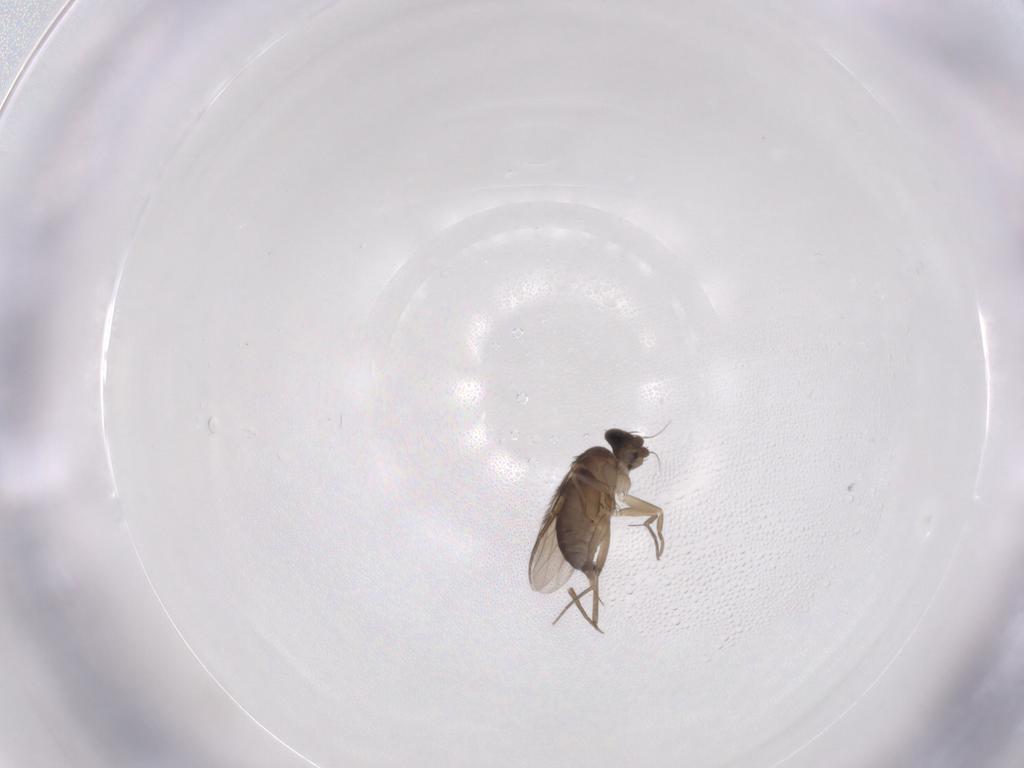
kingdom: Animalia
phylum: Arthropoda
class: Insecta
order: Diptera
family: Phoridae
